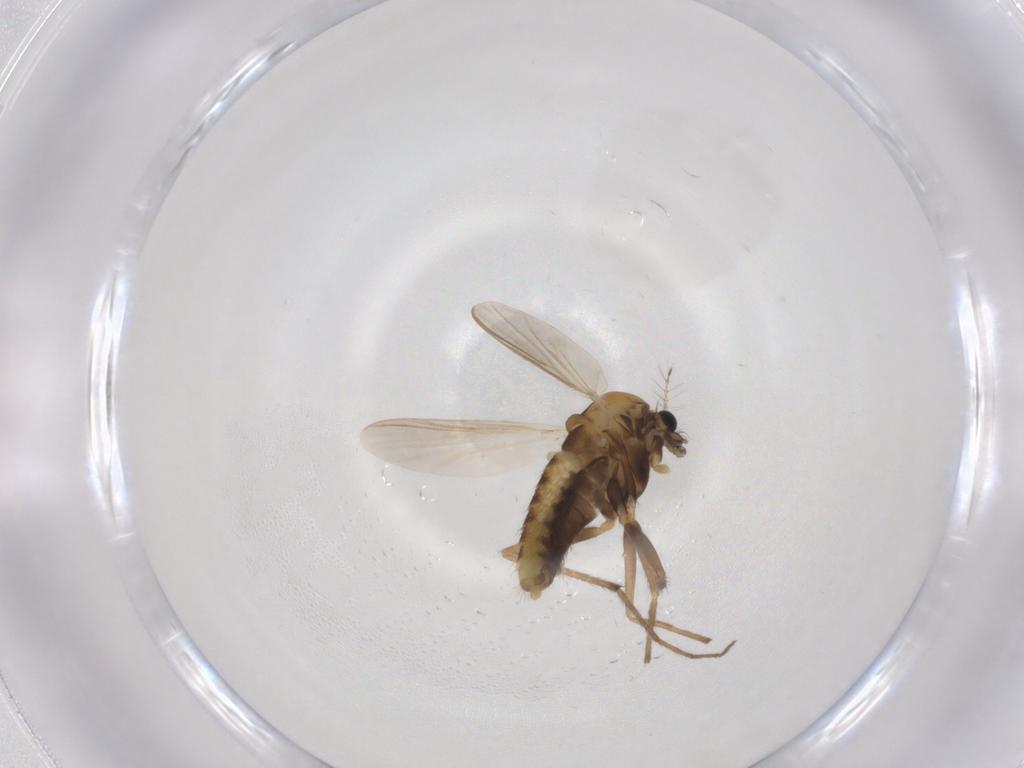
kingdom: Animalia
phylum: Arthropoda
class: Insecta
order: Diptera
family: Chironomidae
